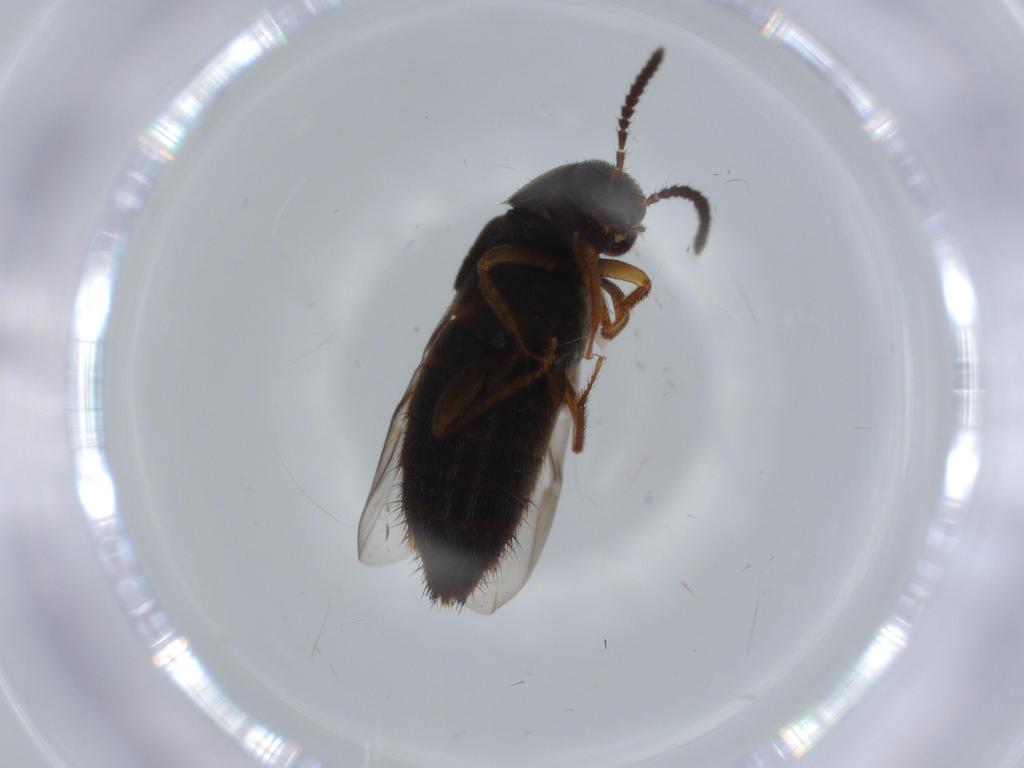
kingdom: Animalia
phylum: Arthropoda
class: Insecta
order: Coleoptera
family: Staphylinidae
